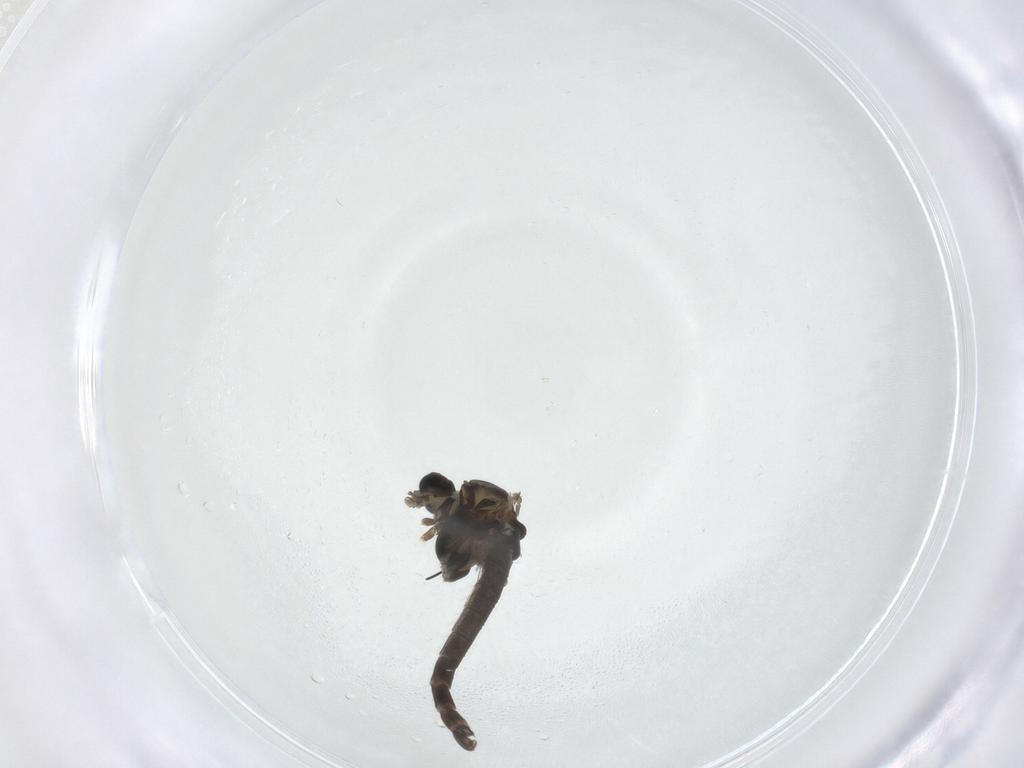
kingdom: Animalia
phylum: Arthropoda
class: Insecta
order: Diptera
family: Chironomidae
